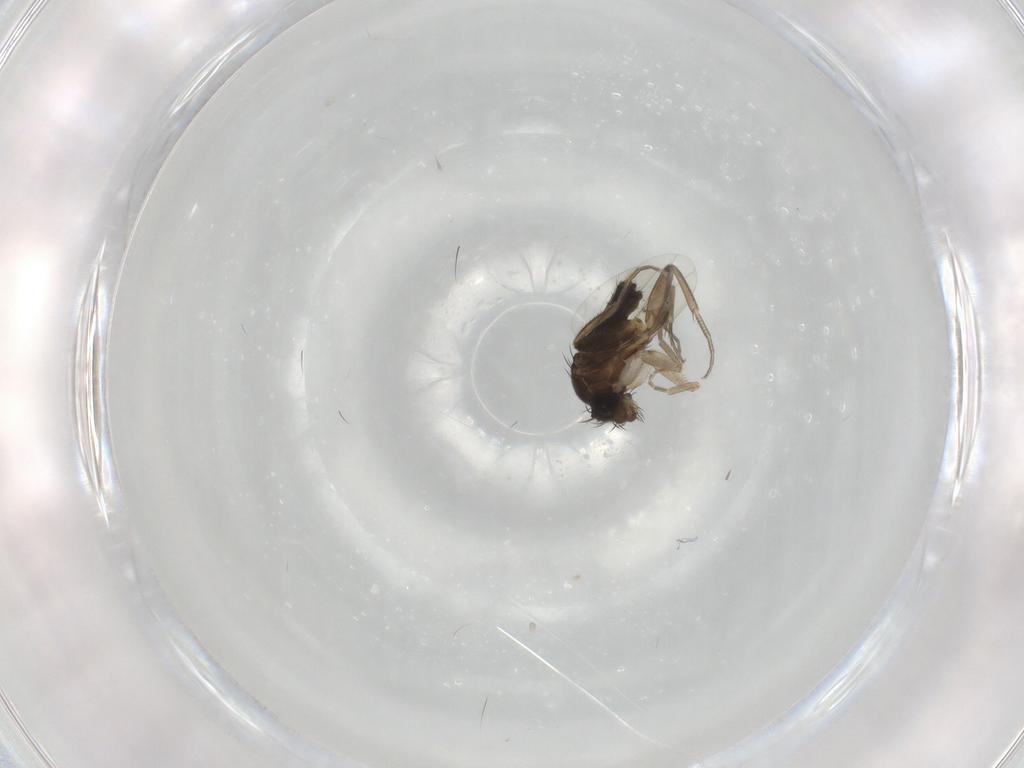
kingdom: Animalia
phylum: Arthropoda
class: Insecta
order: Diptera
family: Phoridae
